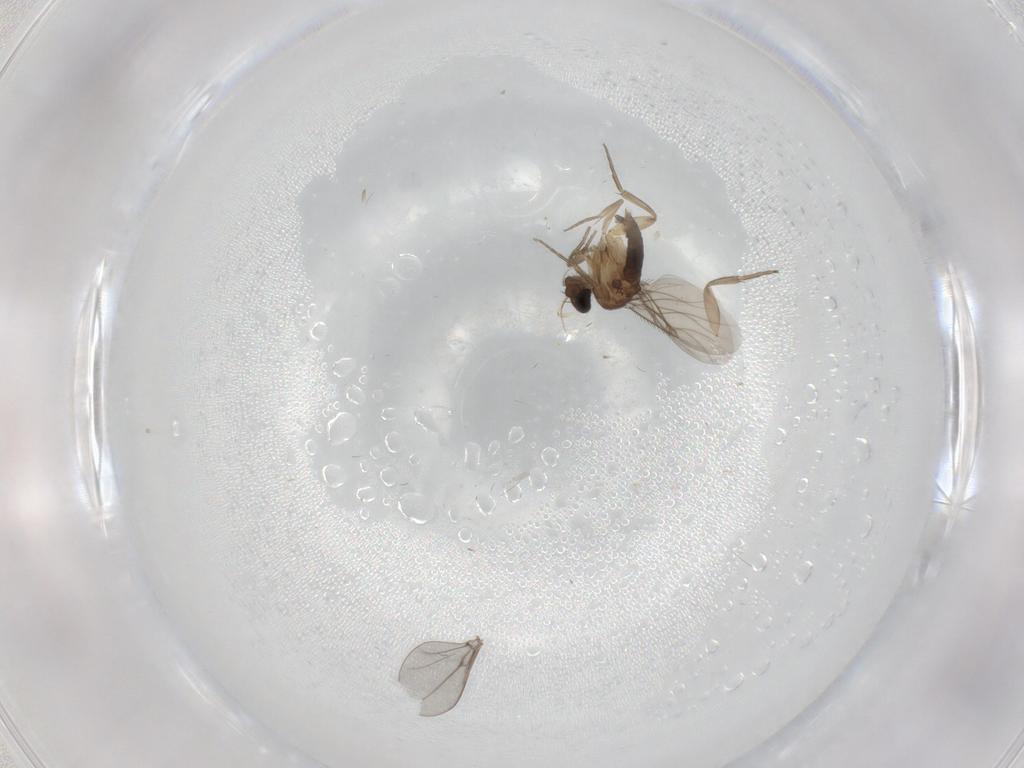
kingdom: Animalia
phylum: Arthropoda
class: Insecta
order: Diptera
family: Phoridae
